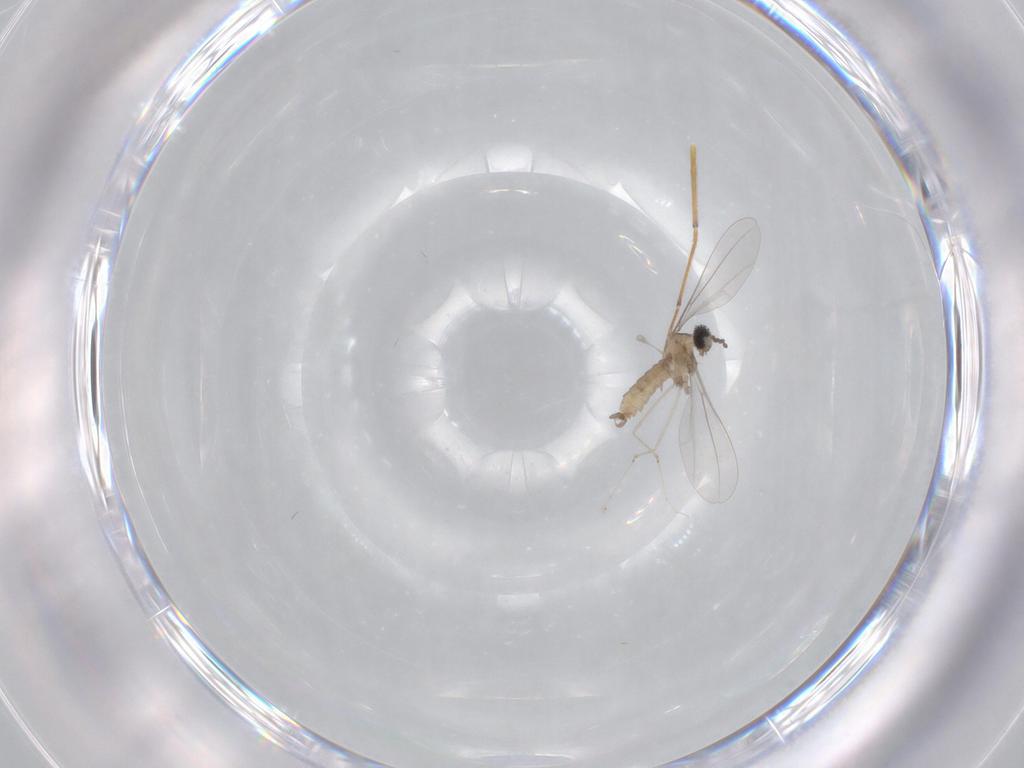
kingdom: Animalia
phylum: Arthropoda
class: Insecta
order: Diptera
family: Cecidomyiidae
